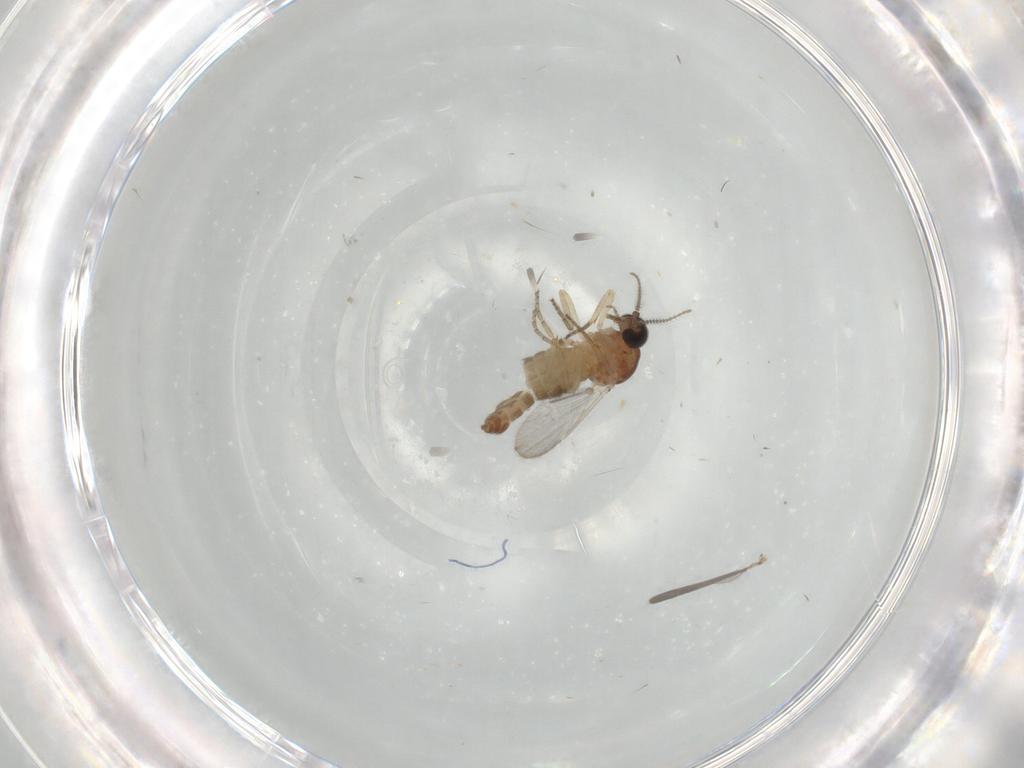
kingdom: Animalia
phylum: Arthropoda
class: Insecta
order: Diptera
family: Ceratopogonidae
